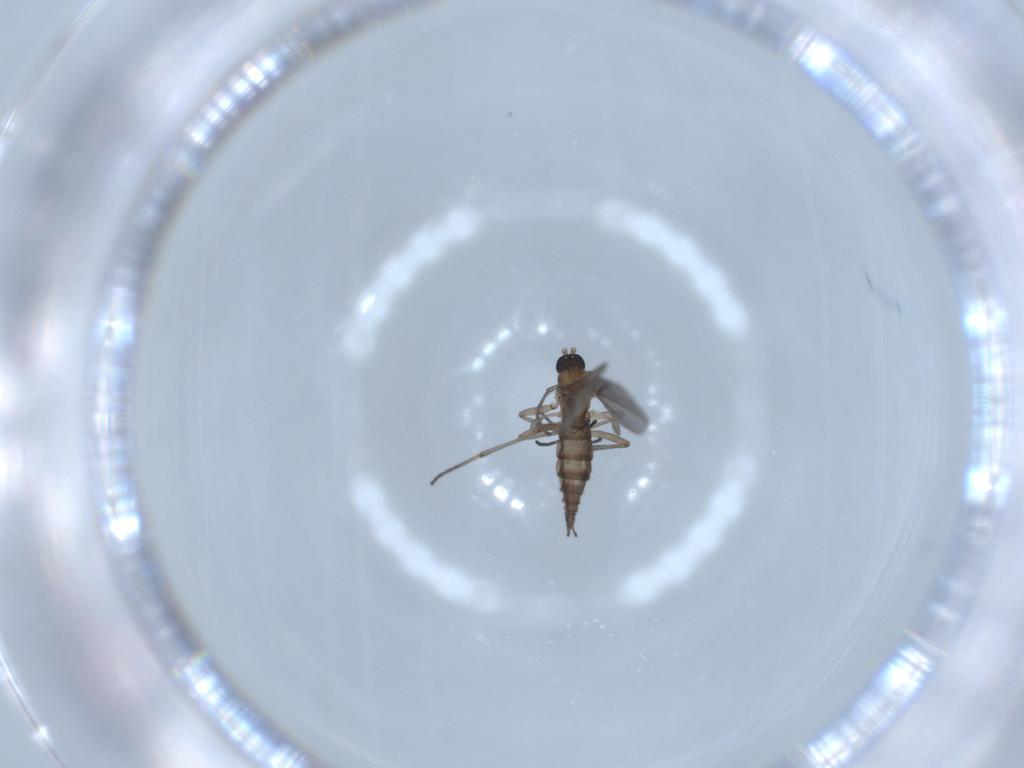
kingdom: Animalia
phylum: Arthropoda
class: Insecta
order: Diptera
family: Sciaridae
